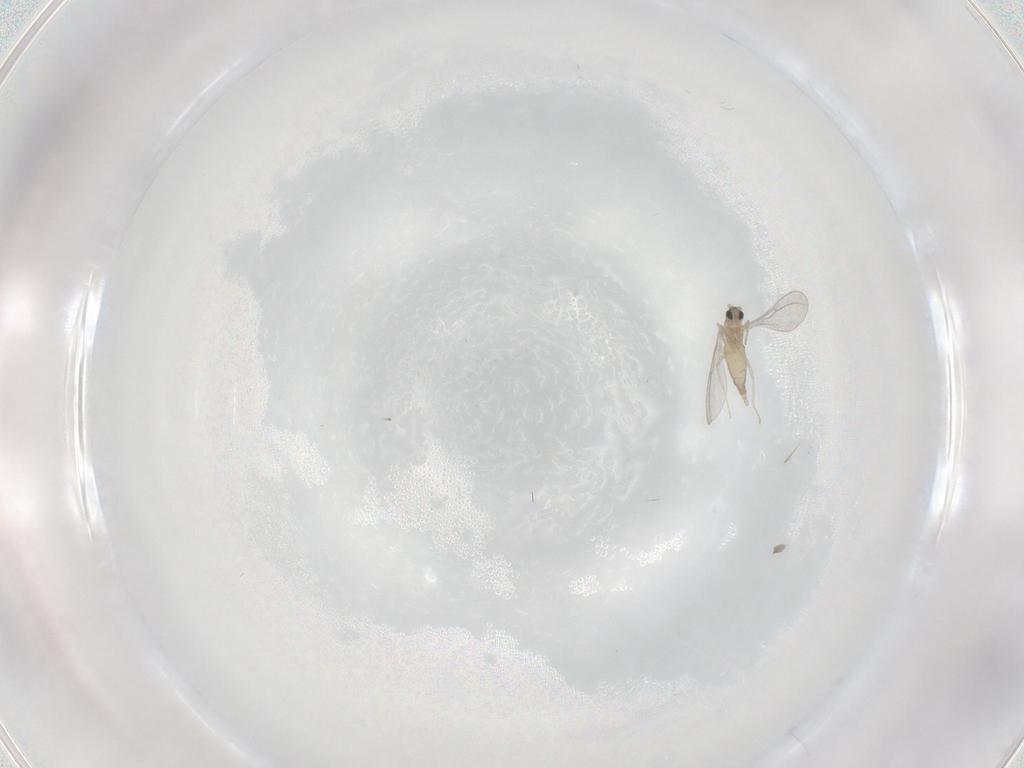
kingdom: Animalia
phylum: Arthropoda
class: Insecta
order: Diptera
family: Cecidomyiidae
